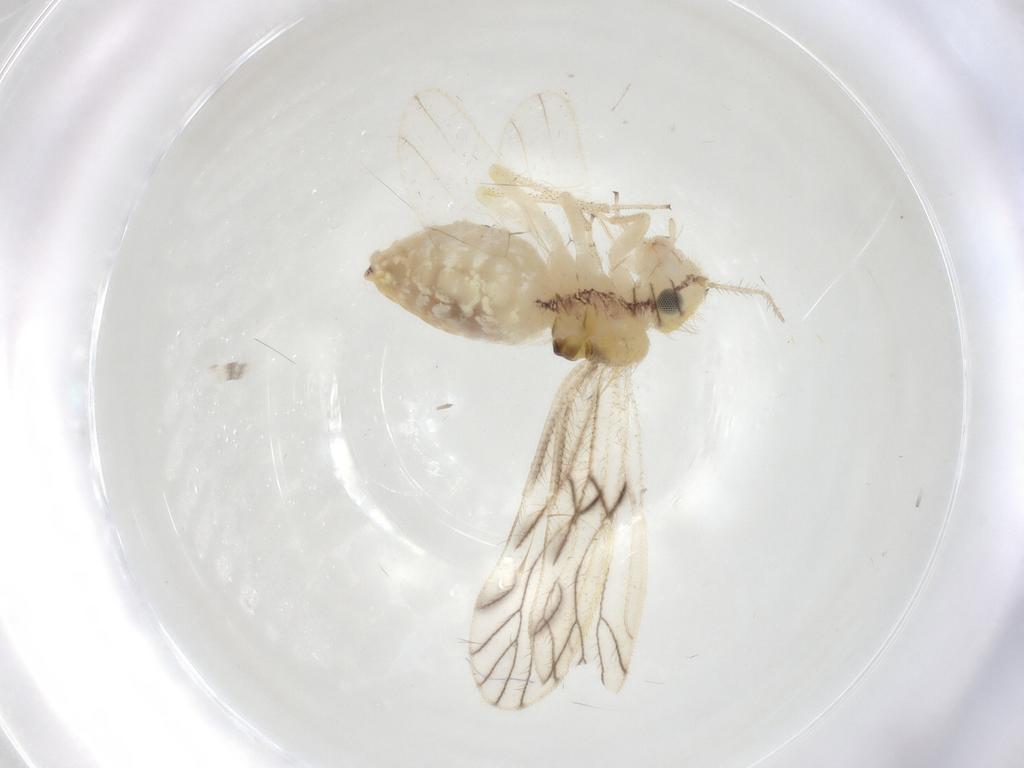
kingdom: Animalia
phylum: Arthropoda
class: Insecta
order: Psocodea
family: Philotarsidae
